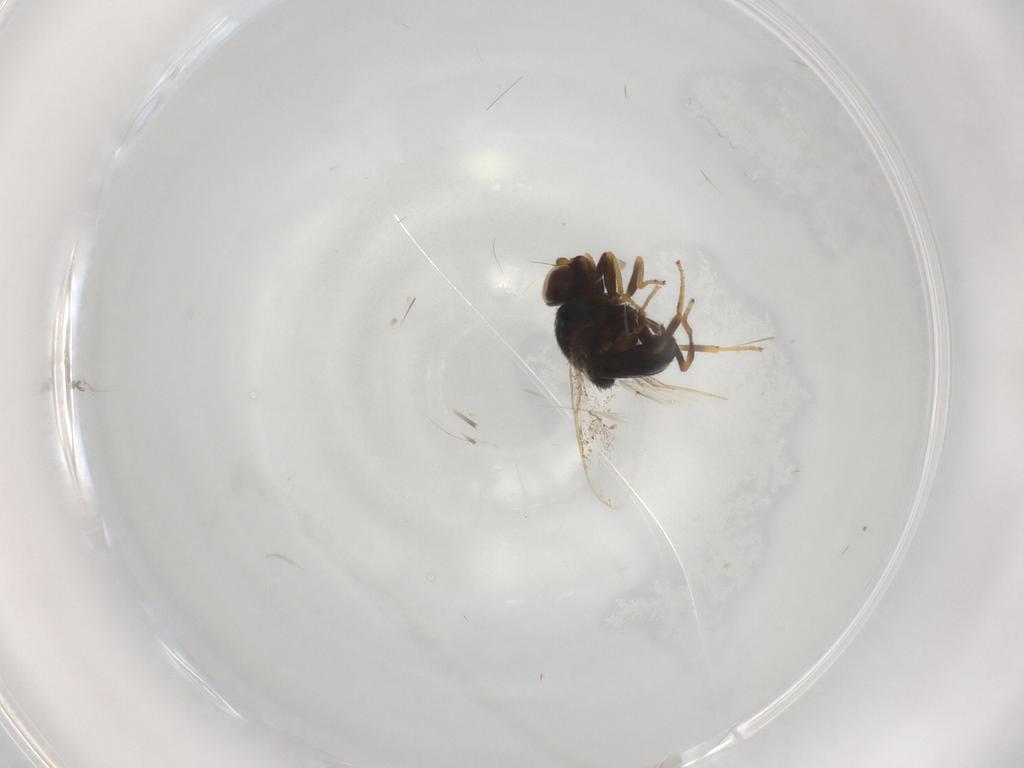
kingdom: Animalia
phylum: Arthropoda
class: Insecta
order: Diptera
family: Chloropidae
